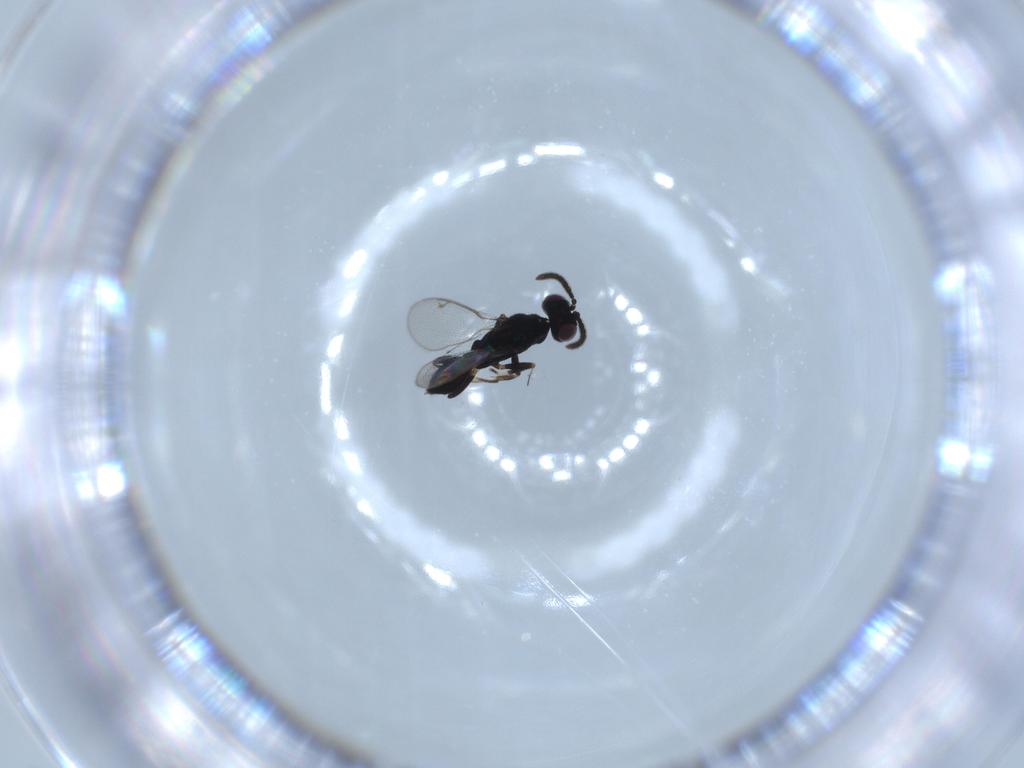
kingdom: Animalia
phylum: Arthropoda
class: Insecta
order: Hymenoptera
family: Eupelmidae
